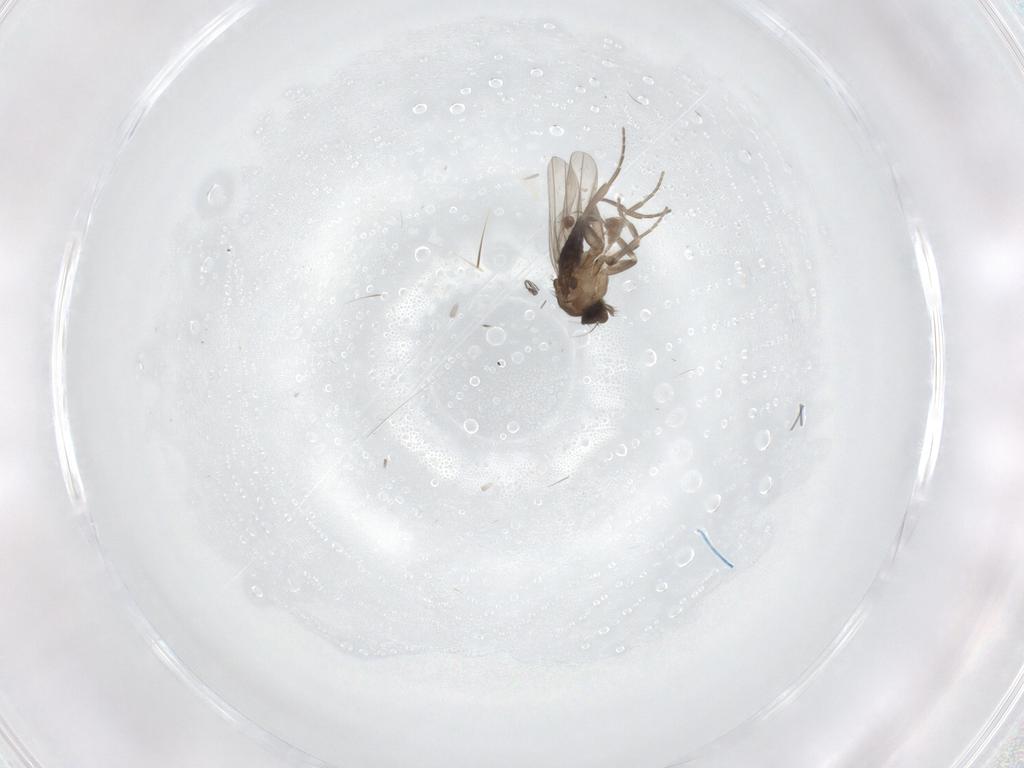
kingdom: Animalia
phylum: Arthropoda
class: Insecta
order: Diptera
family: Phoridae
